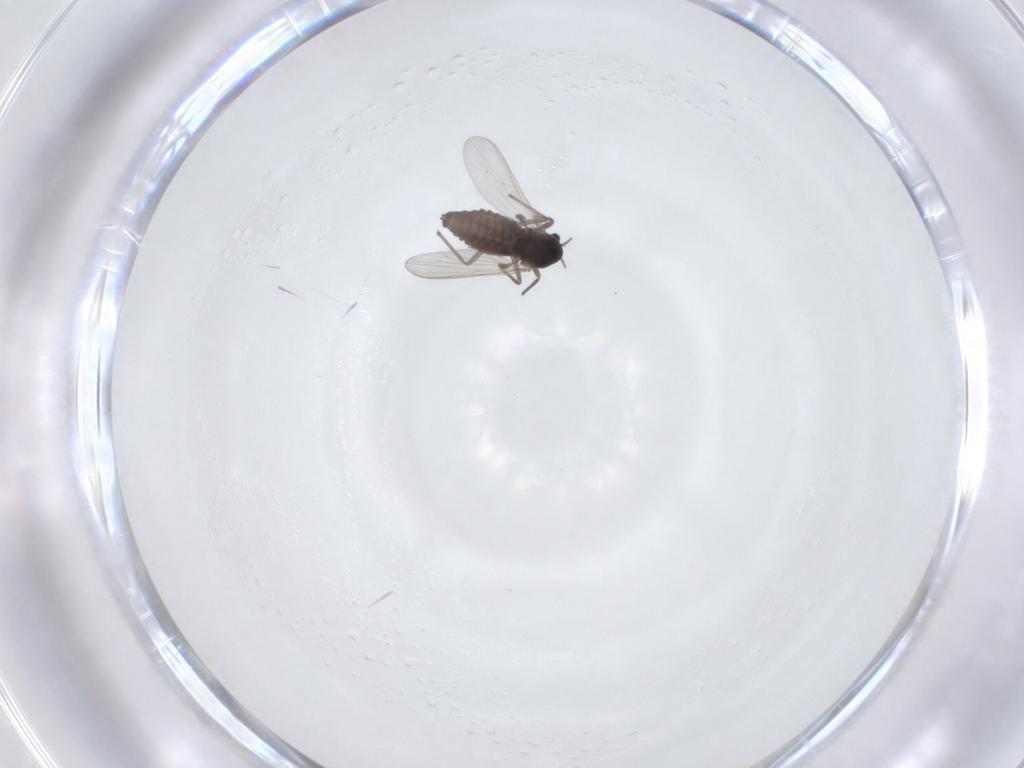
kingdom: Animalia
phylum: Arthropoda
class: Insecta
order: Diptera
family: Chironomidae
